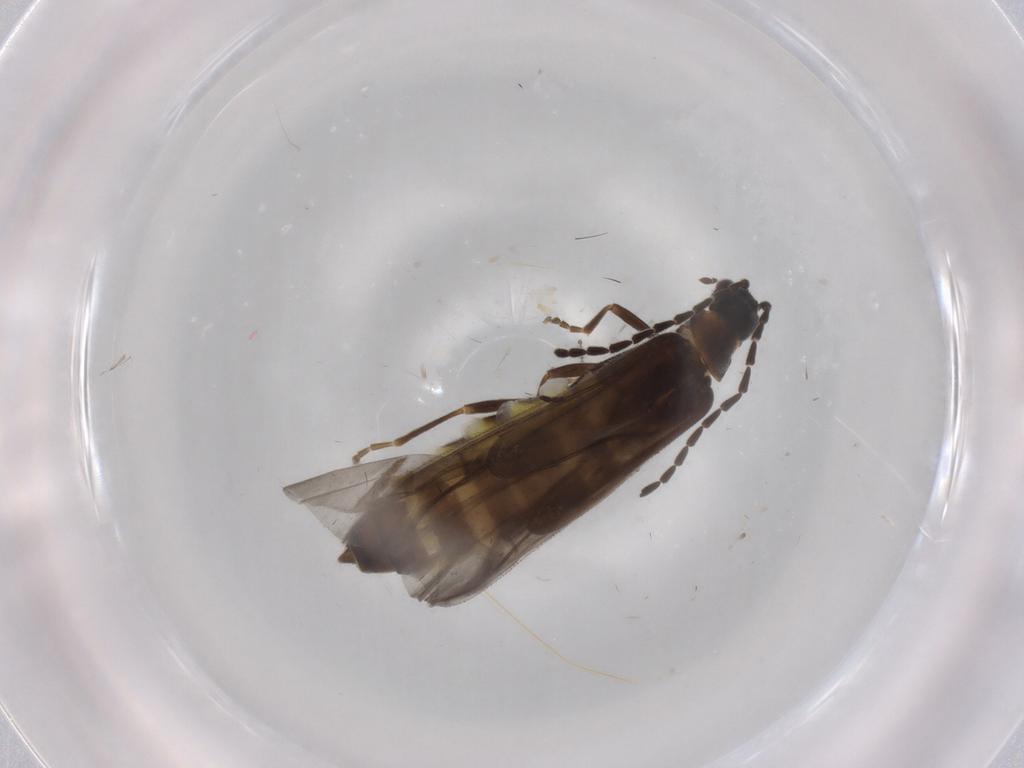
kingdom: Animalia
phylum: Arthropoda
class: Insecta
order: Coleoptera
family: Cantharidae
